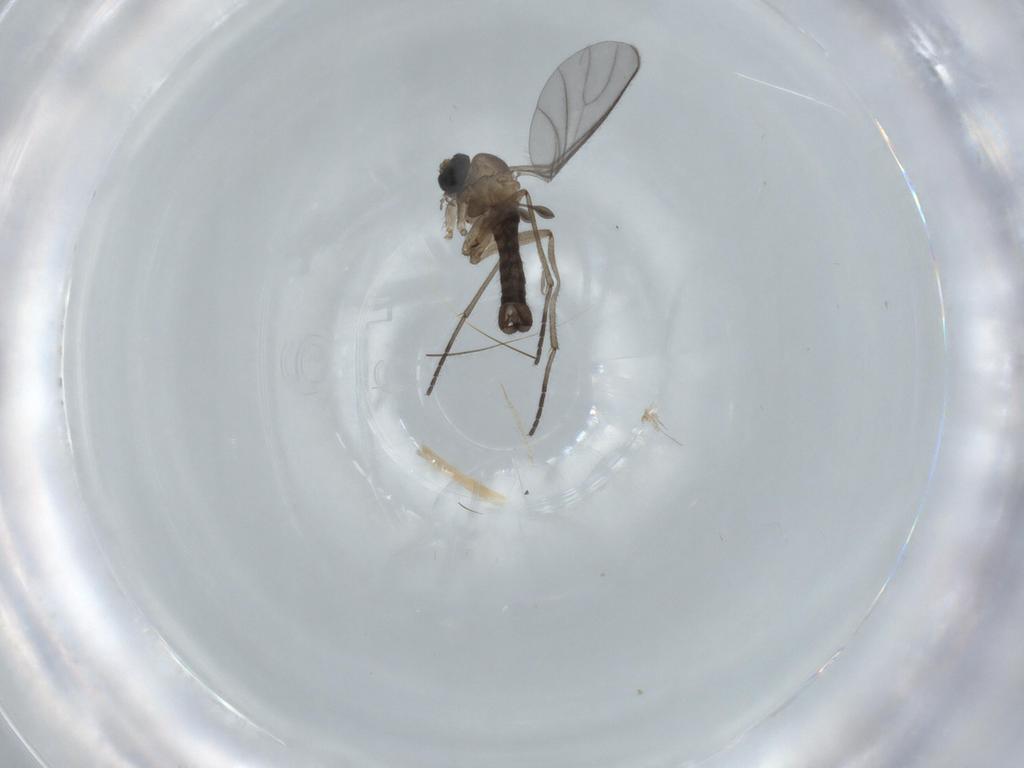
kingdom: Animalia
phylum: Arthropoda
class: Insecta
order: Diptera
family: Sciaridae
